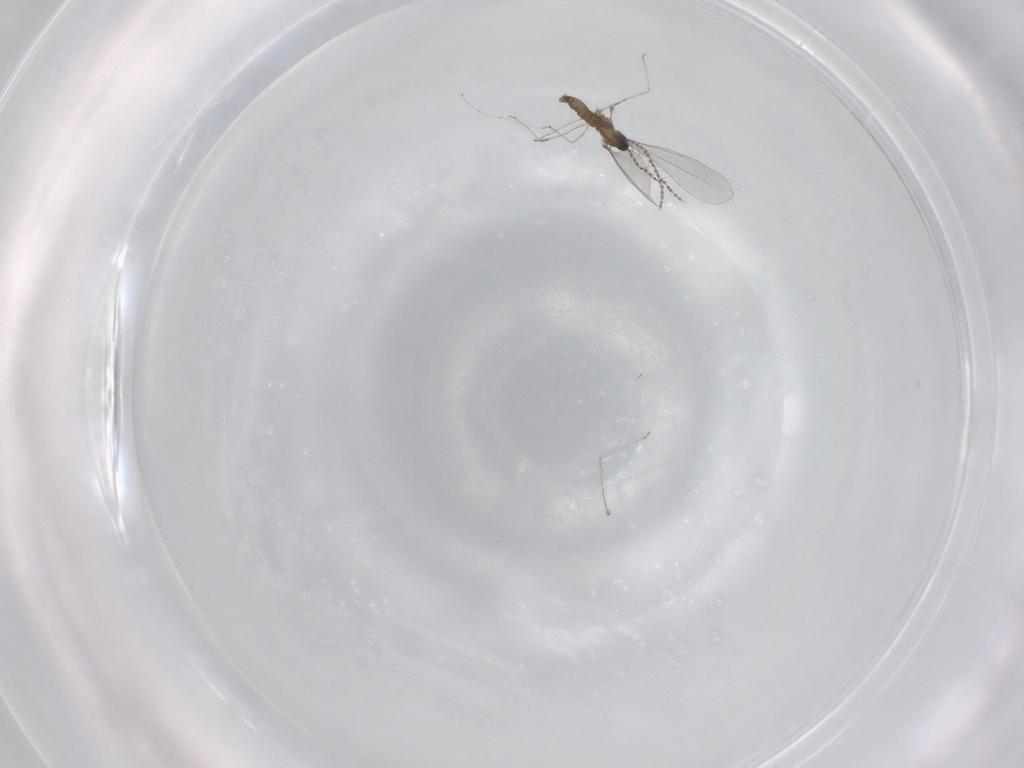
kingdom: Animalia
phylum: Arthropoda
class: Insecta
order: Diptera
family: Cecidomyiidae
